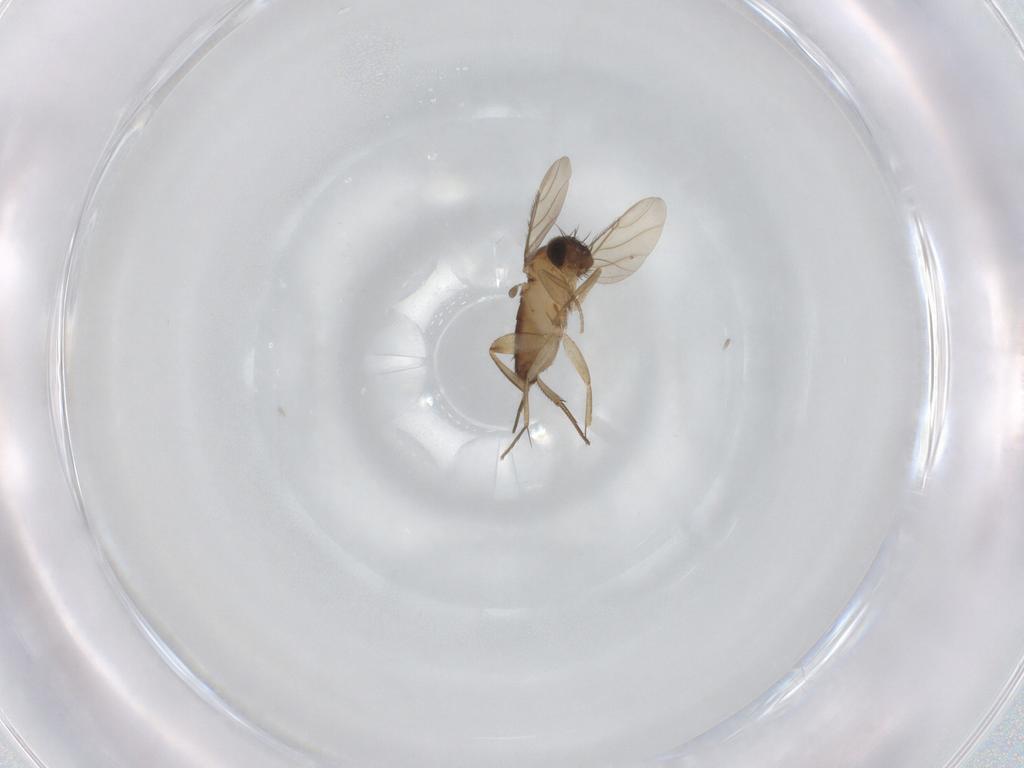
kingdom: Animalia
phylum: Arthropoda
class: Insecta
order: Diptera
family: Phoridae
